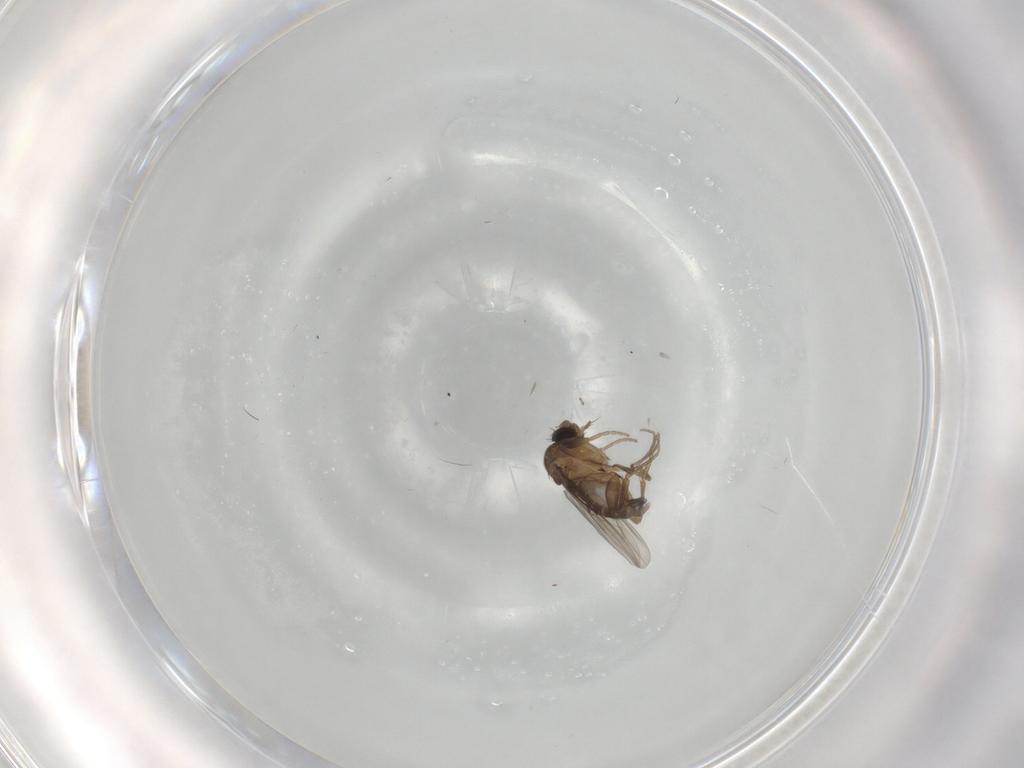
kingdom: Animalia
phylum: Arthropoda
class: Insecta
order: Diptera
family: Phoridae
